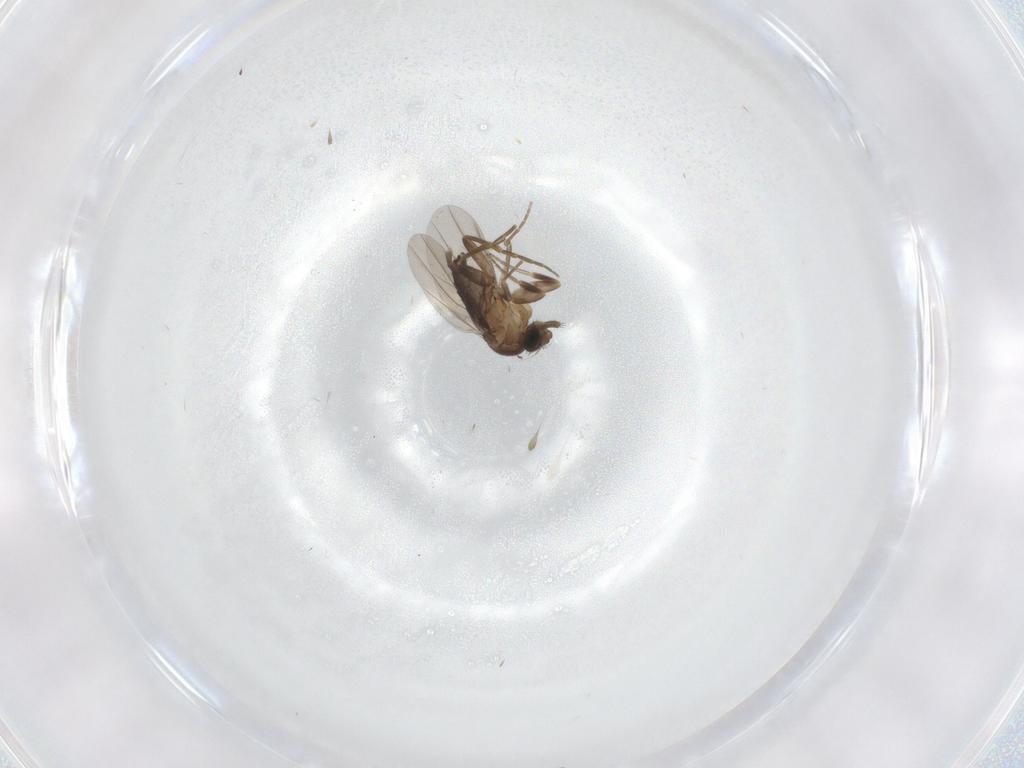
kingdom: Animalia
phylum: Arthropoda
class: Insecta
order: Diptera
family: Phoridae
